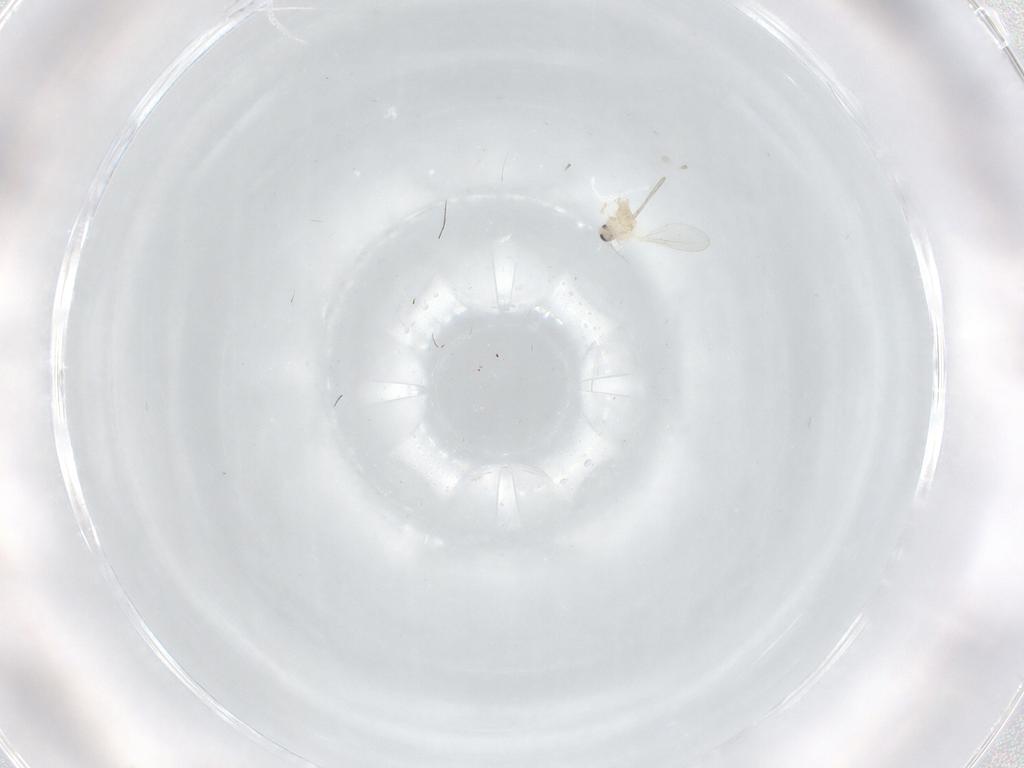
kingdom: Animalia
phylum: Arthropoda
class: Insecta
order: Diptera
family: Cecidomyiidae
